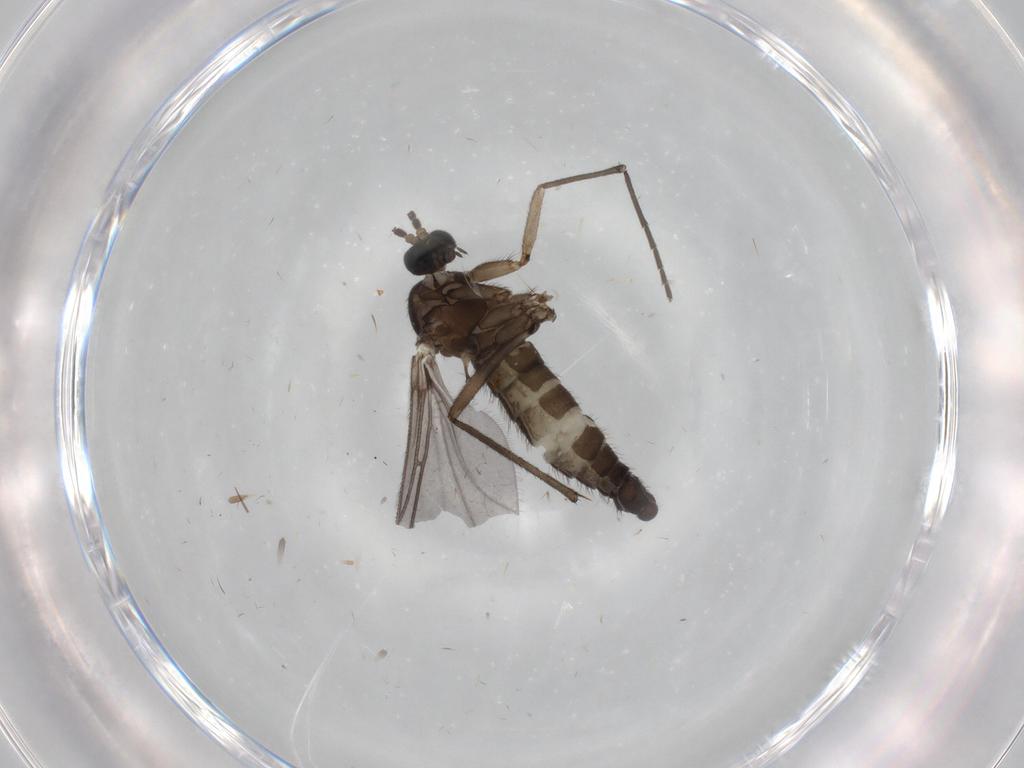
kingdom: Animalia
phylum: Arthropoda
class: Insecta
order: Diptera
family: Sciaridae
